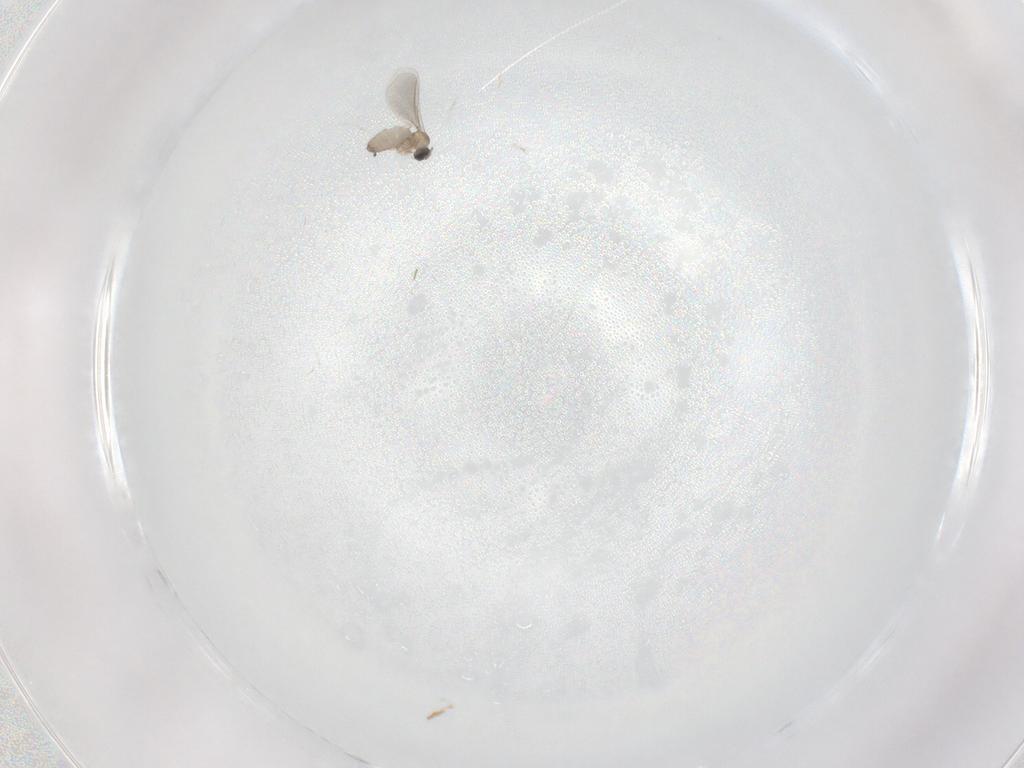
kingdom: Animalia
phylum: Arthropoda
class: Insecta
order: Diptera
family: Cecidomyiidae
